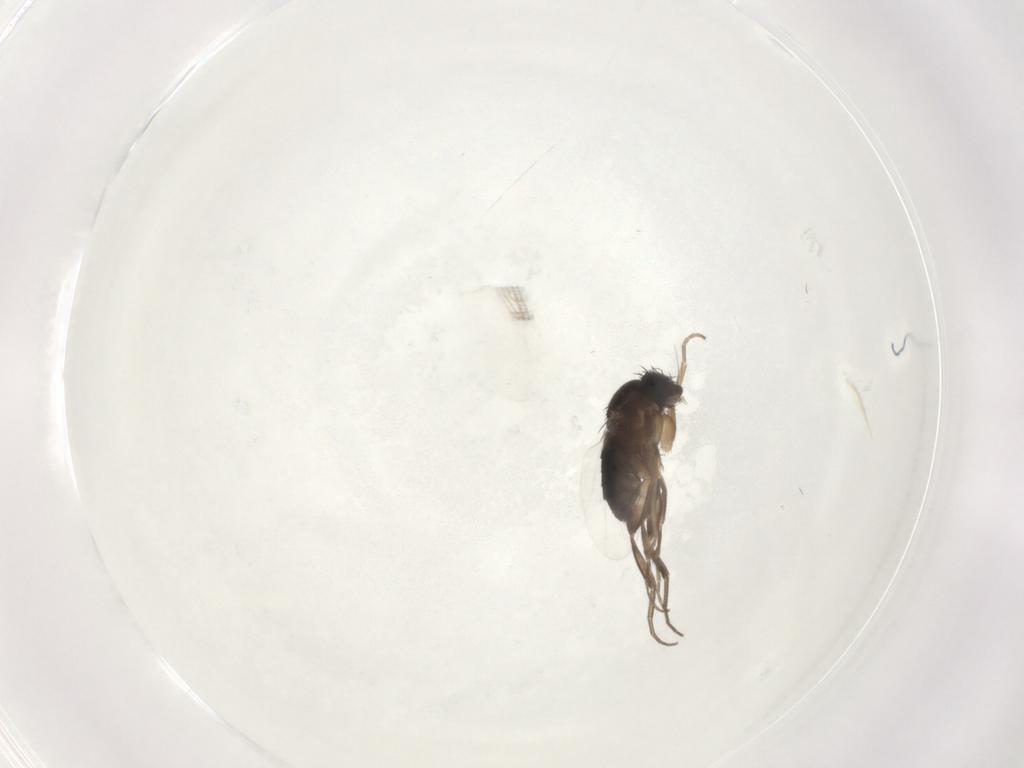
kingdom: Animalia
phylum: Arthropoda
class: Insecta
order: Diptera
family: Phoridae
